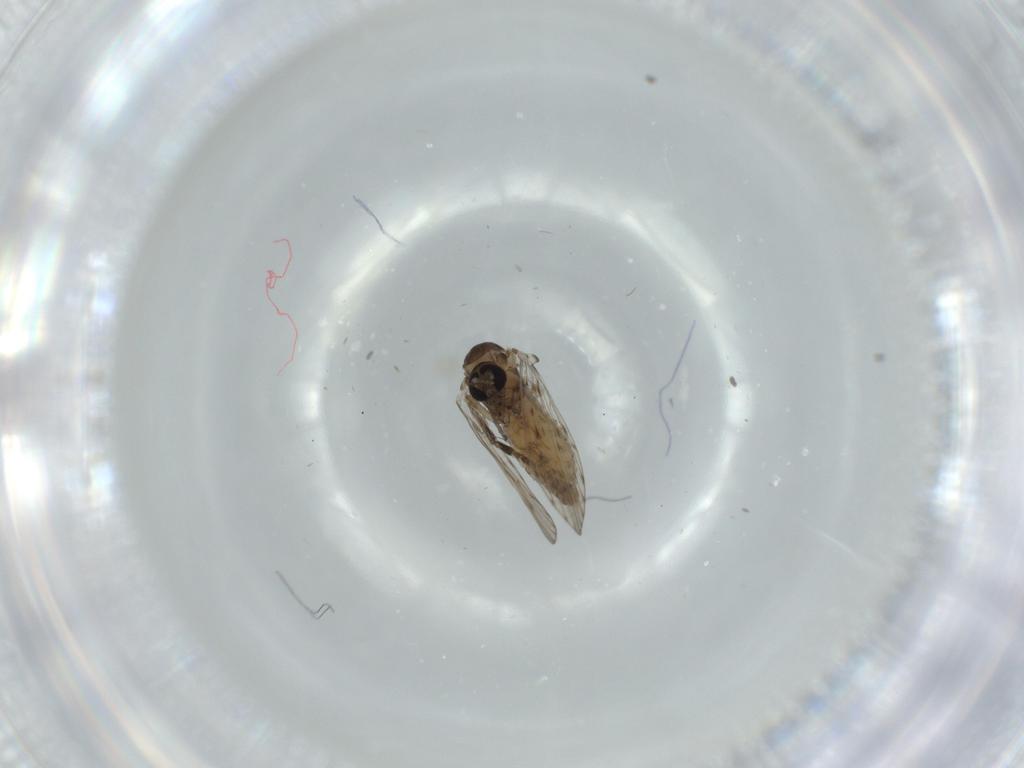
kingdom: Animalia
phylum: Arthropoda
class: Insecta
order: Diptera
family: Psychodidae
